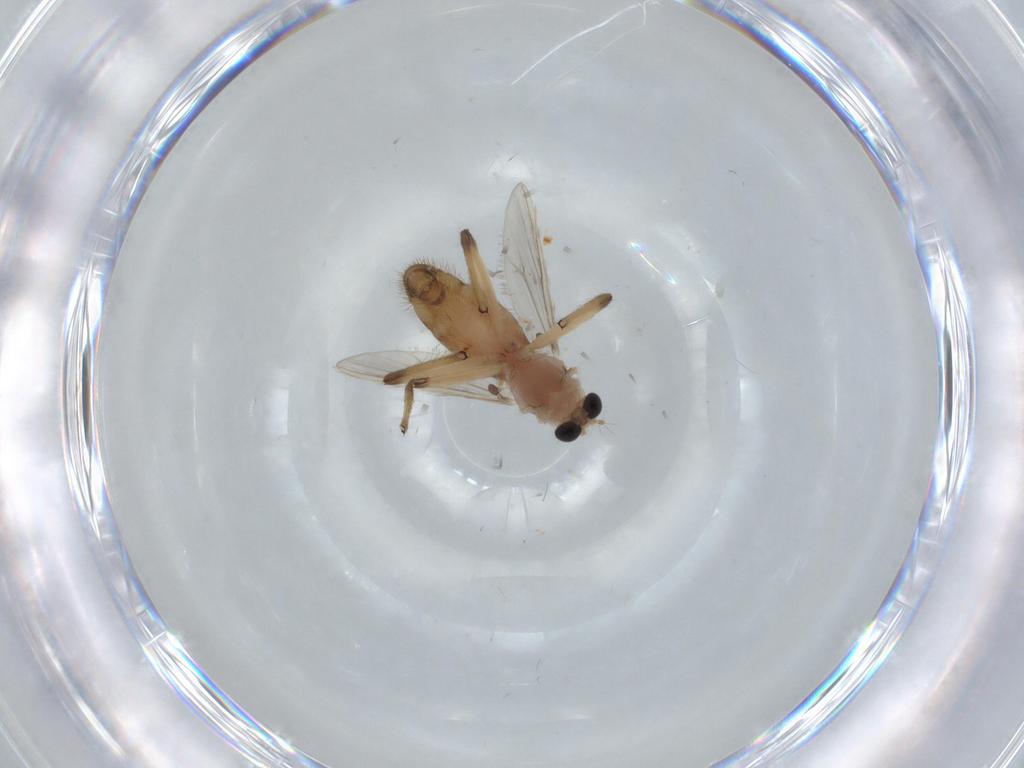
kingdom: Animalia
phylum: Arthropoda
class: Insecta
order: Diptera
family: Chironomidae
